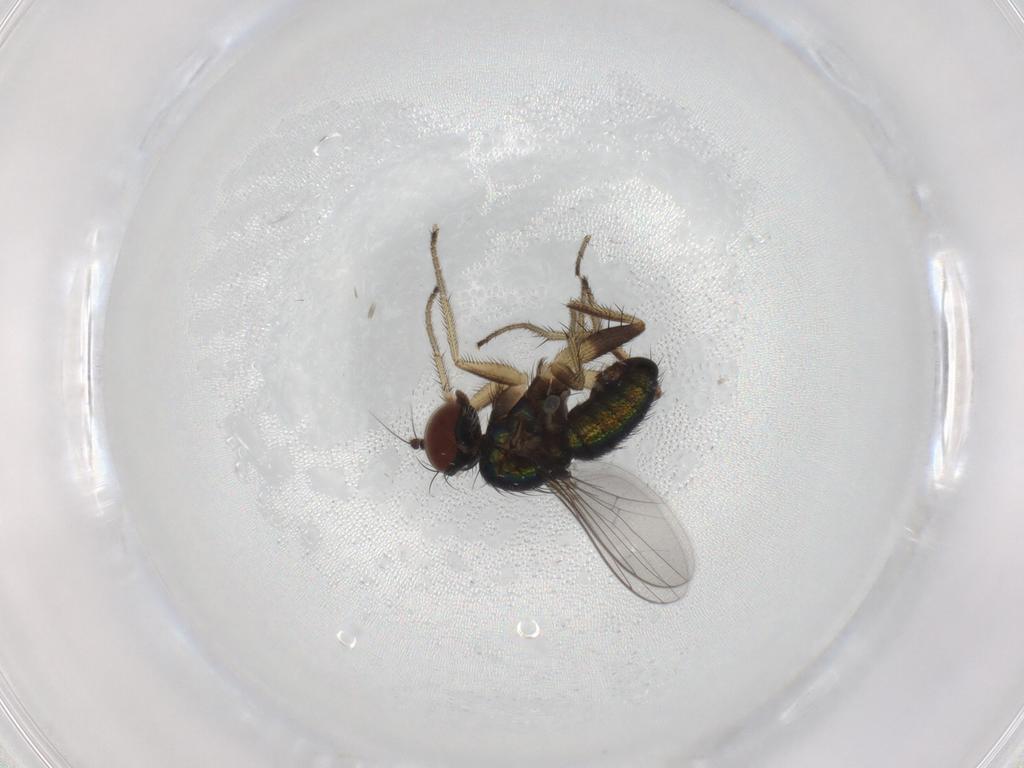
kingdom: Animalia
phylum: Arthropoda
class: Insecta
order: Diptera
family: Dolichopodidae
